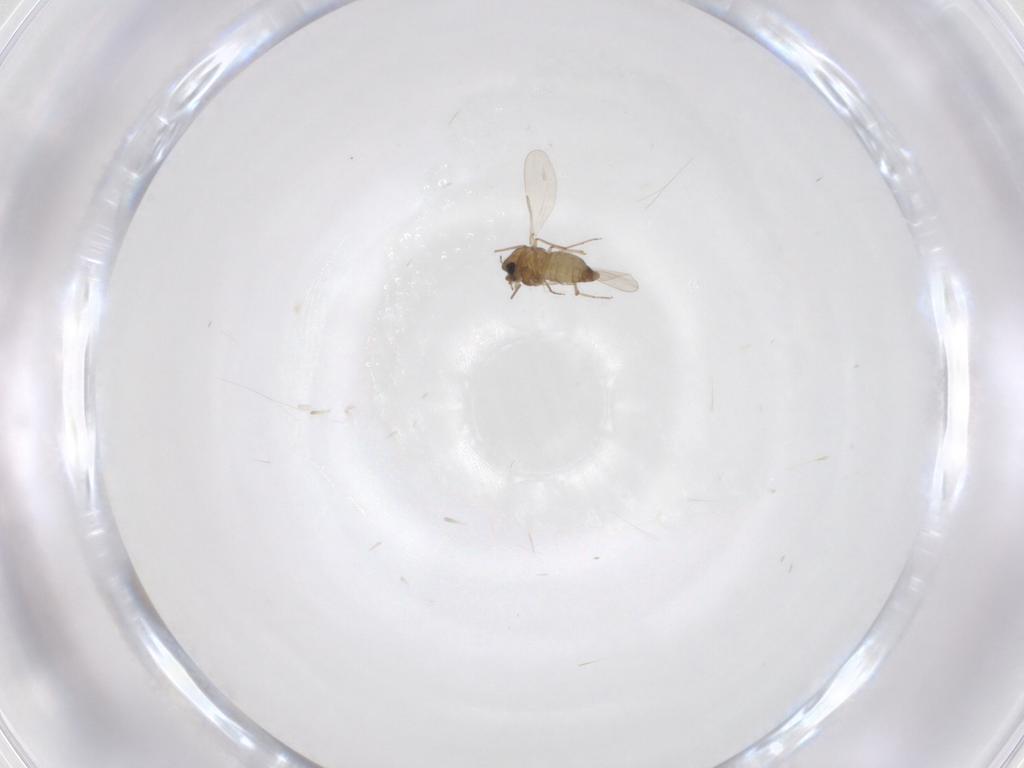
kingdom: Animalia
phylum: Arthropoda
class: Insecta
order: Diptera
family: Chironomidae
